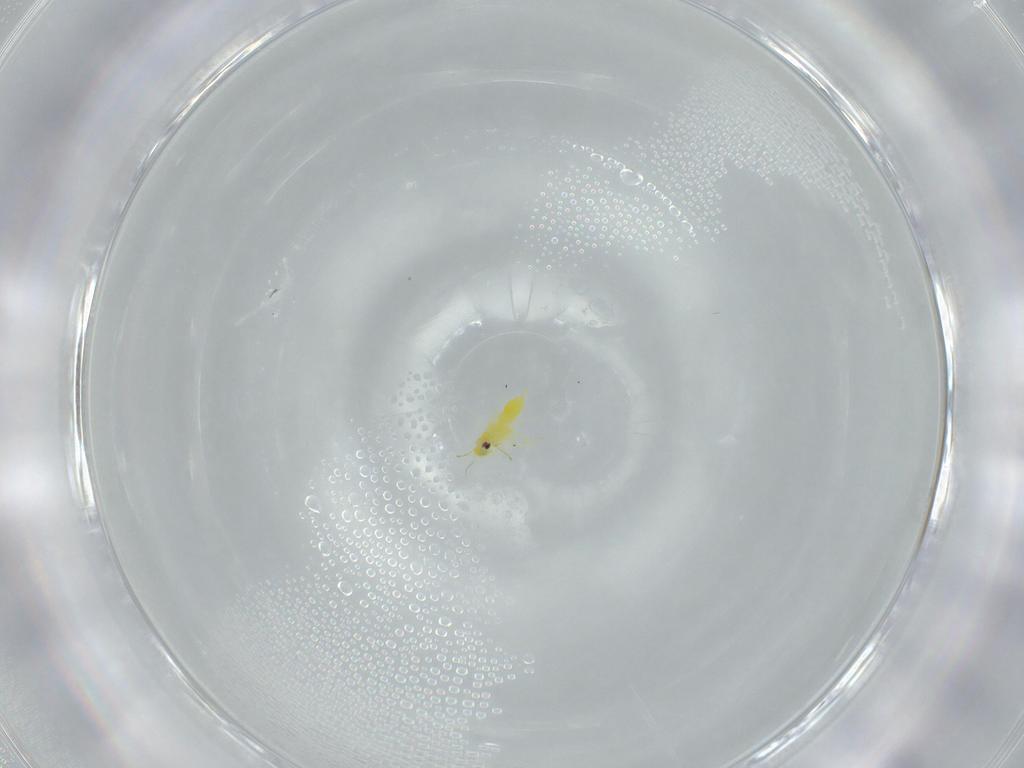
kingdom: Animalia
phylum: Arthropoda
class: Insecta
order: Hemiptera
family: Aleyrodidae
